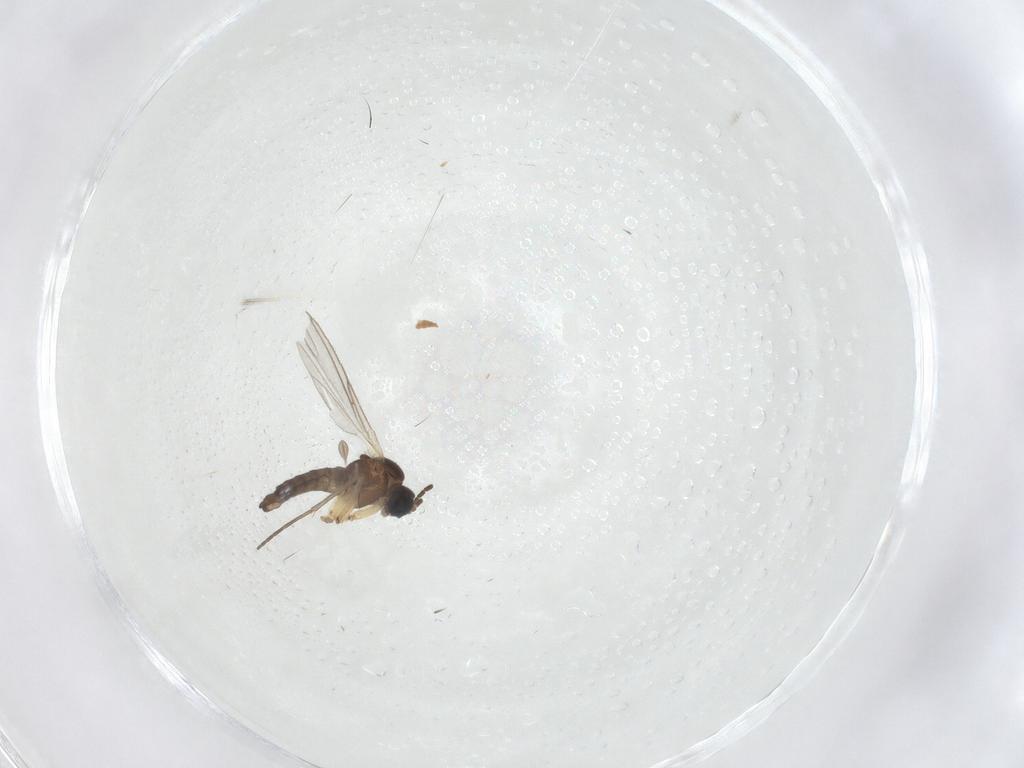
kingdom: Animalia
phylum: Arthropoda
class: Insecta
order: Diptera
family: Sciaridae
